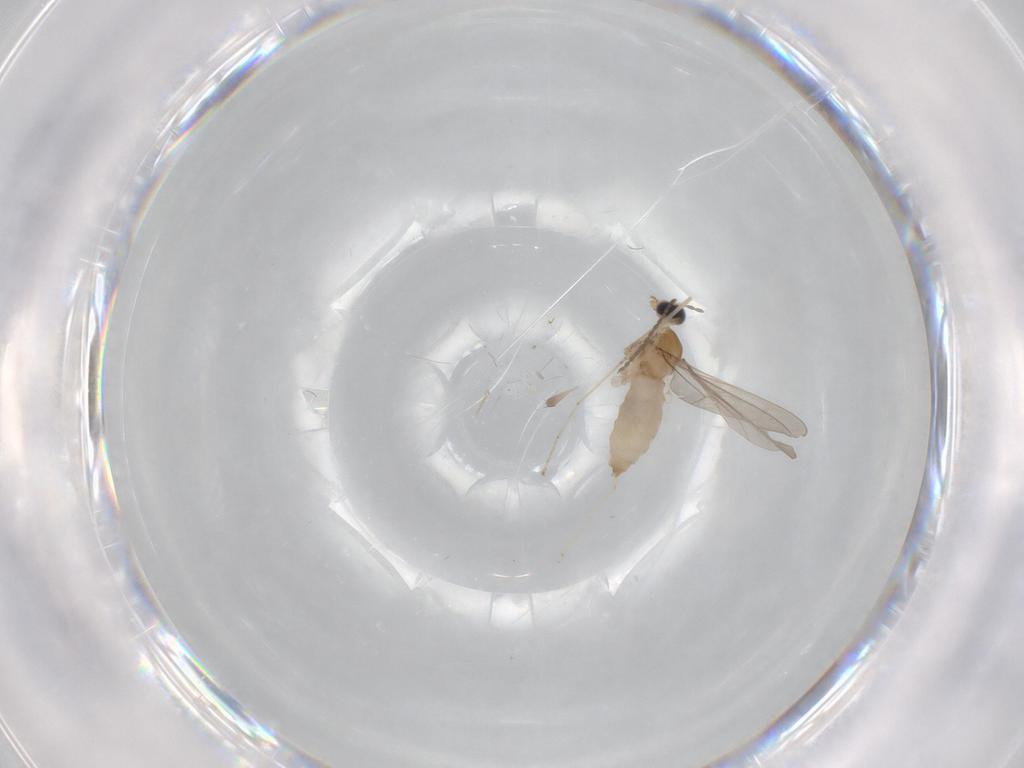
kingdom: Animalia
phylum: Arthropoda
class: Insecta
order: Diptera
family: Cecidomyiidae
